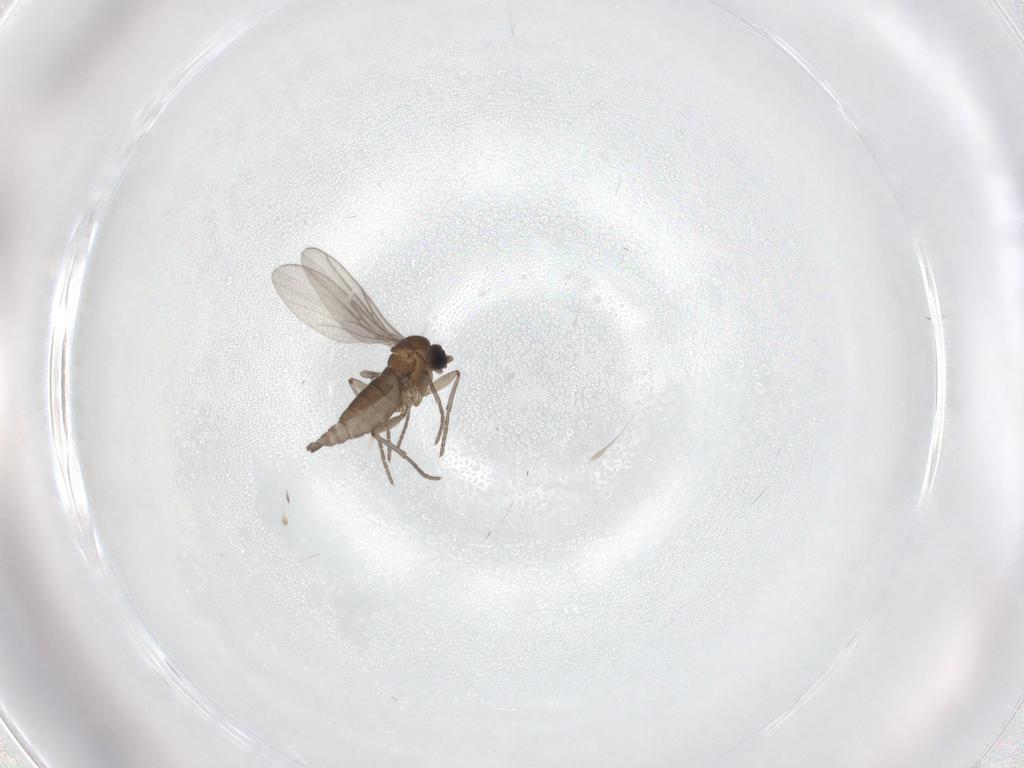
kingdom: Animalia
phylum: Arthropoda
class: Insecta
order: Diptera
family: Sciaridae
